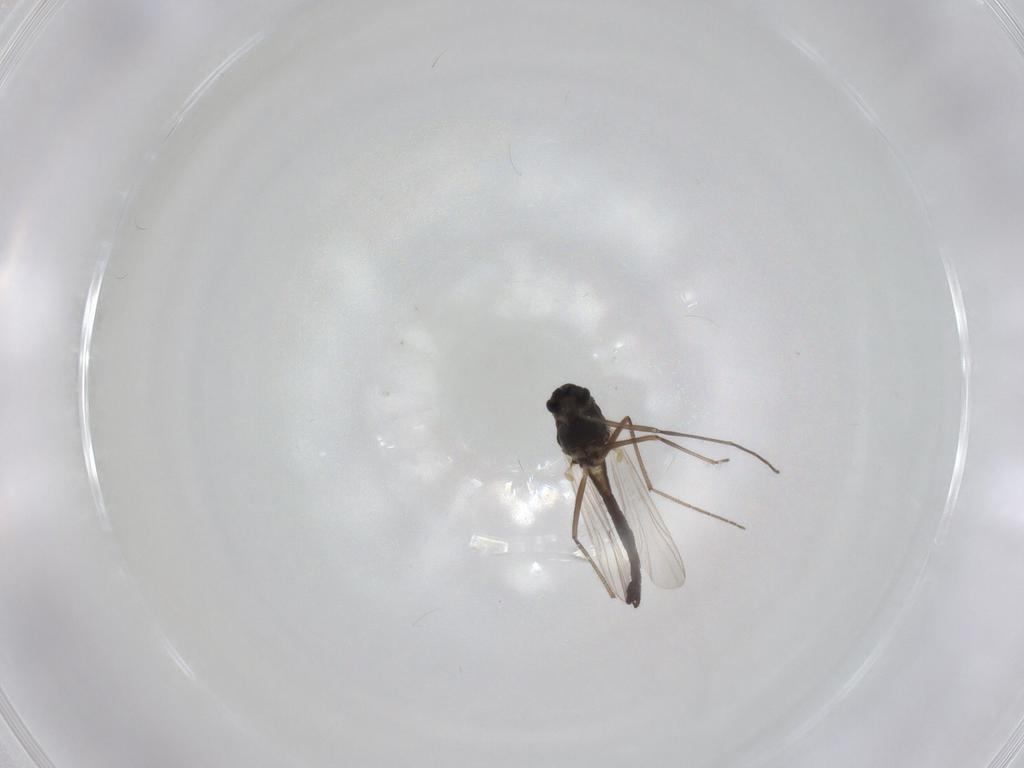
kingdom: Animalia
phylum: Arthropoda
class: Insecta
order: Diptera
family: Chironomidae
